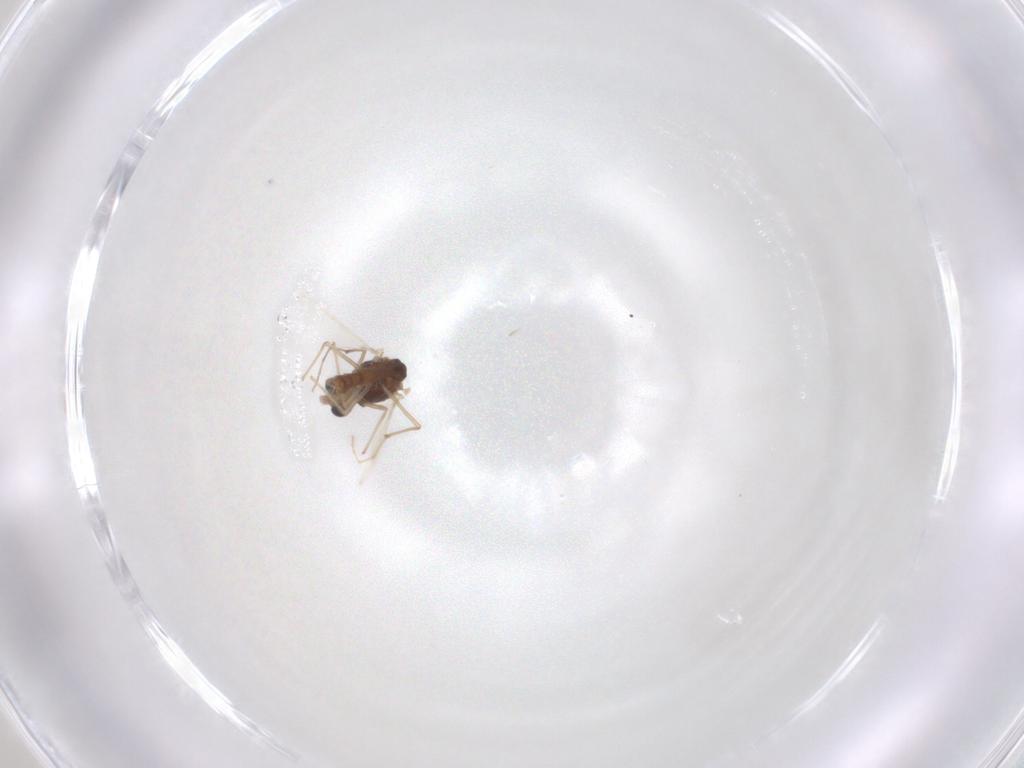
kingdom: Animalia
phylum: Arthropoda
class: Insecta
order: Diptera
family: Chironomidae
